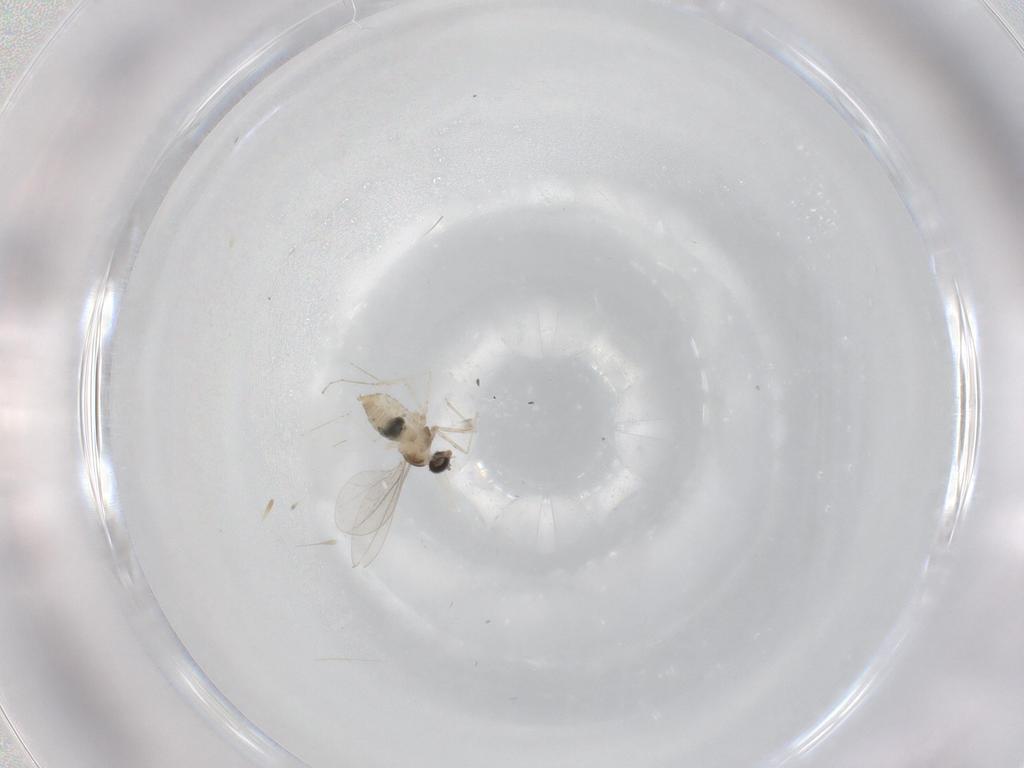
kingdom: Animalia
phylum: Arthropoda
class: Insecta
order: Diptera
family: Cecidomyiidae
